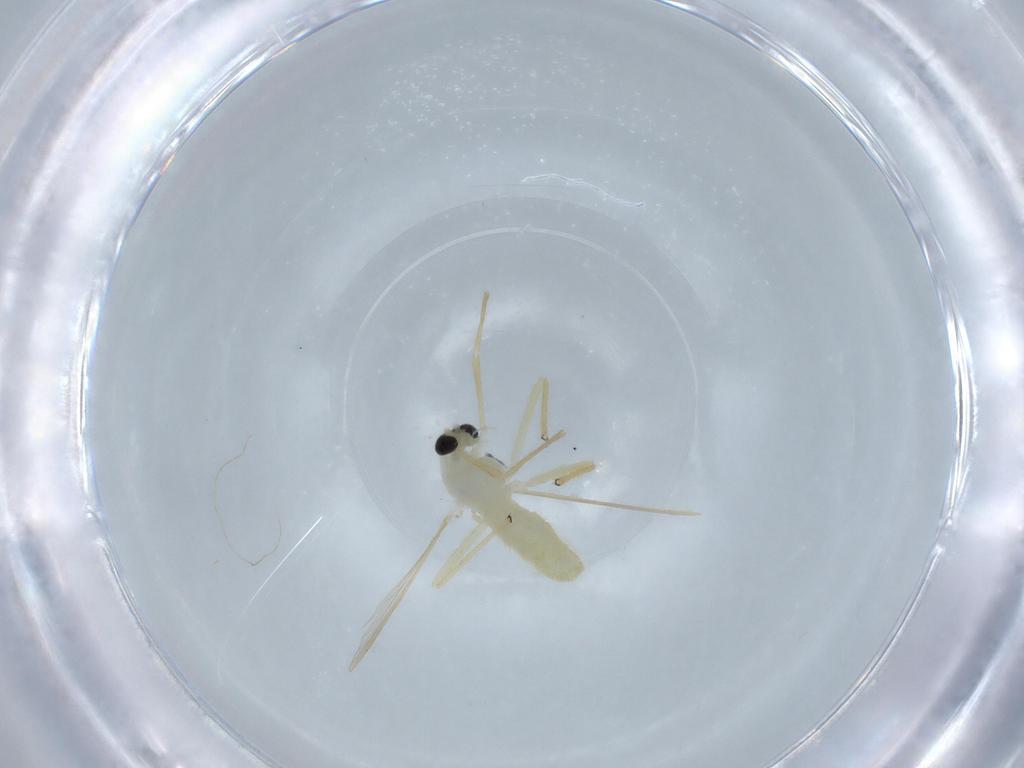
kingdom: Animalia
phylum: Arthropoda
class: Insecta
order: Diptera
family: Chironomidae
